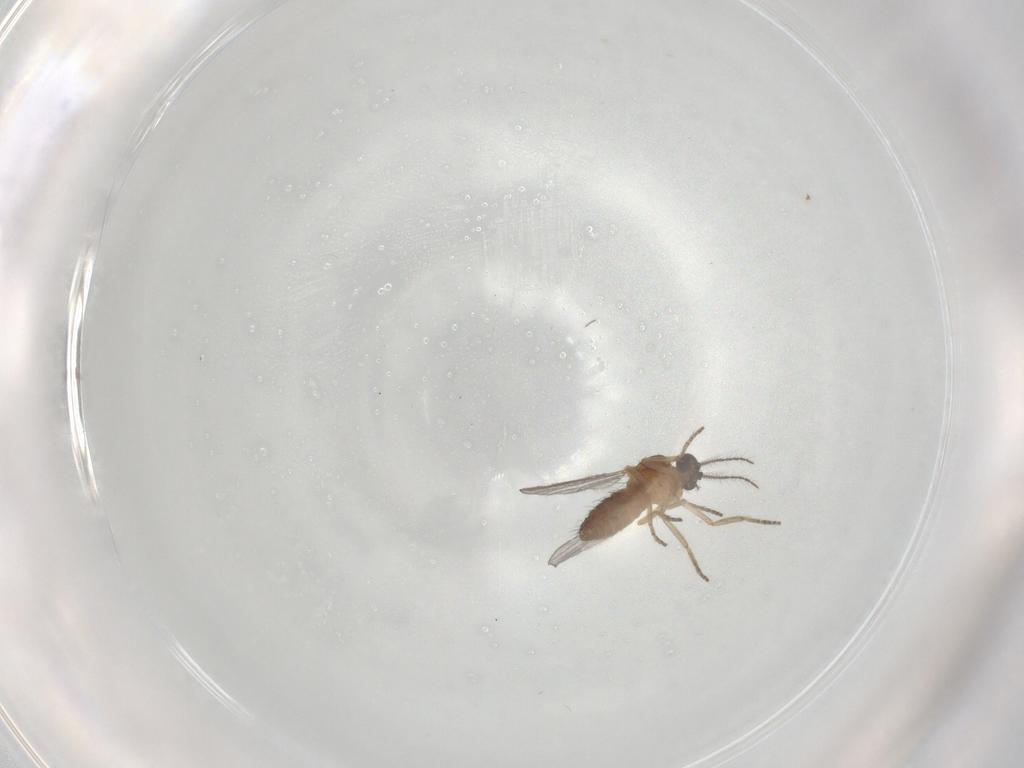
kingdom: Animalia
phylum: Arthropoda
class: Insecta
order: Diptera
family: Ceratopogonidae
